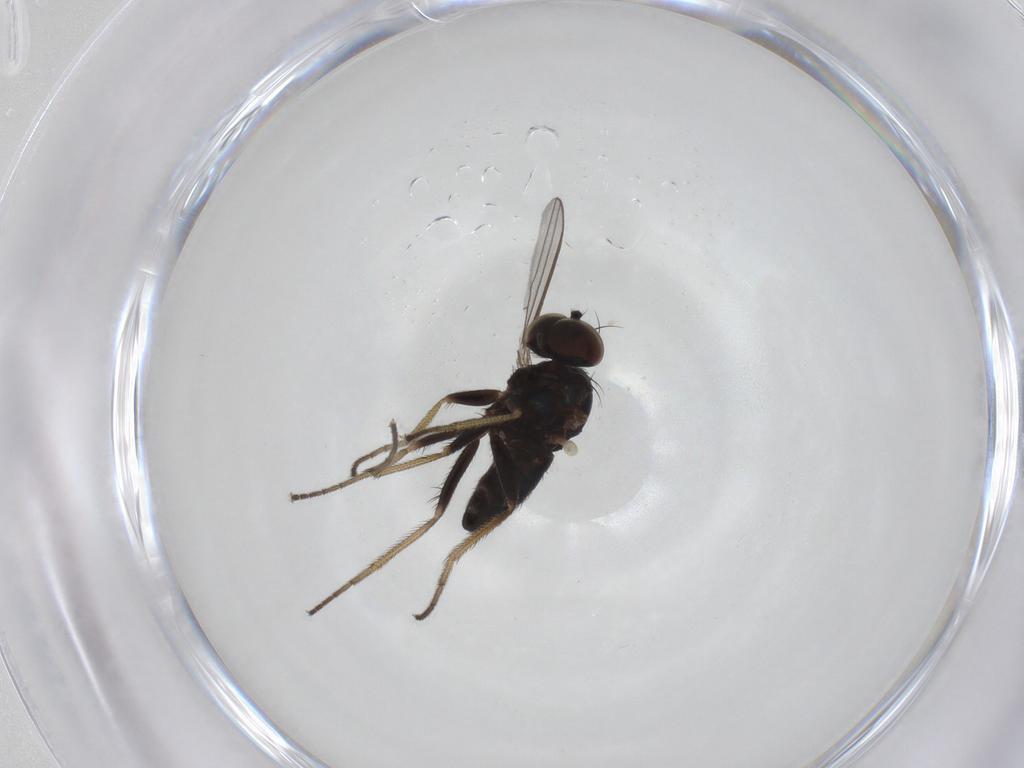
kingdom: Animalia
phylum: Arthropoda
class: Insecta
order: Diptera
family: Dolichopodidae
